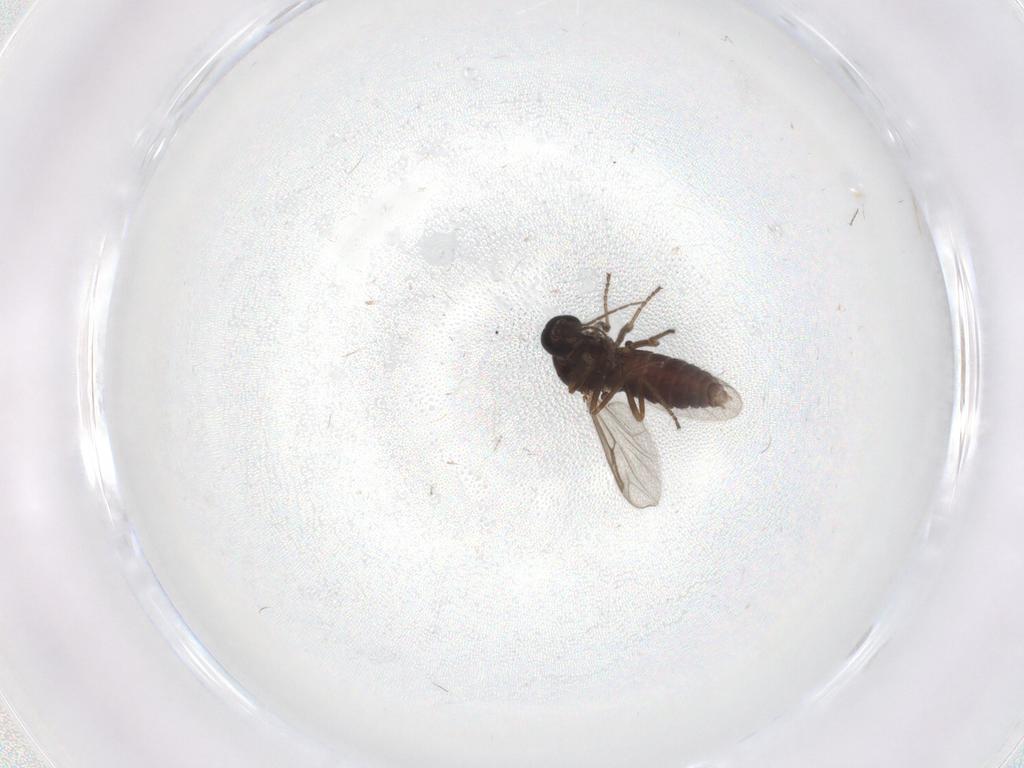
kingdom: Animalia
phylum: Arthropoda
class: Insecta
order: Diptera
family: Ceratopogonidae
